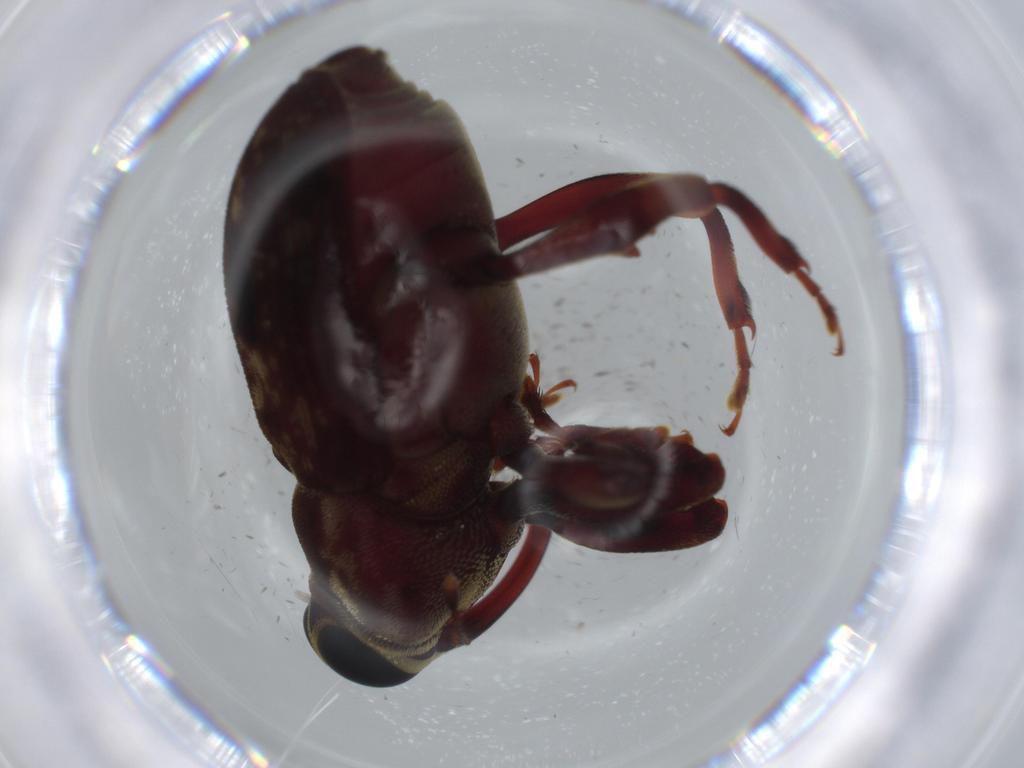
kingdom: Animalia
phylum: Arthropoda
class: Insecta
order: Coleoptera
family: Curculionidae
